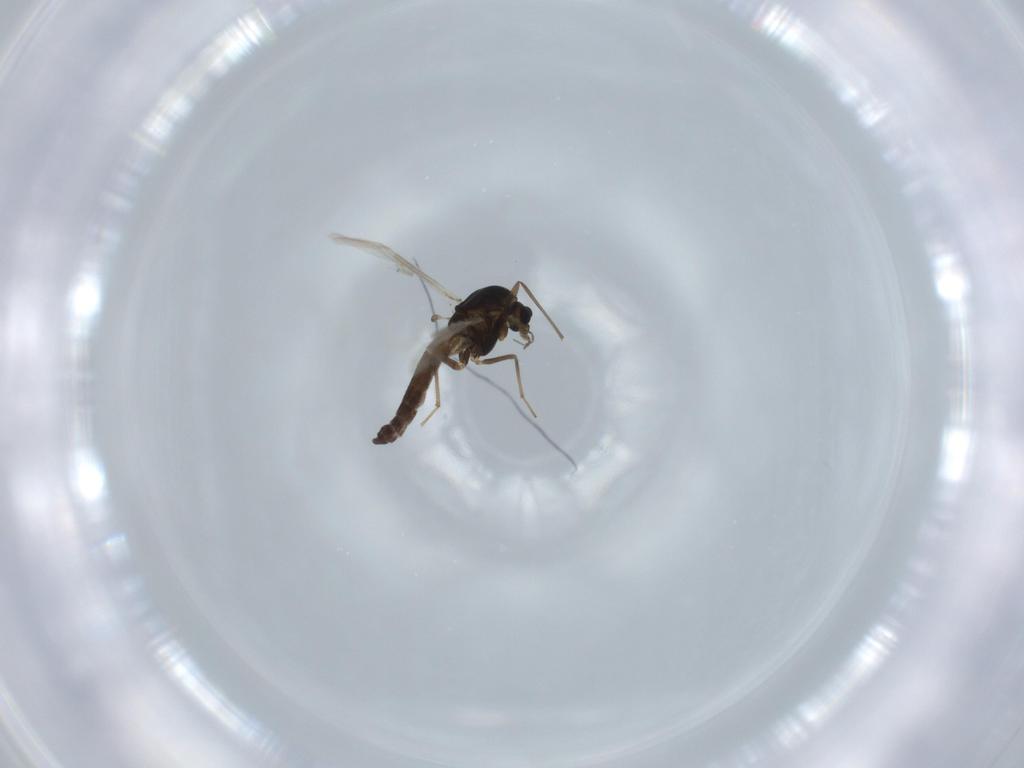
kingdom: Animalia
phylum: Arthropoda
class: Insecta
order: Diptera
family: Chironomidae
